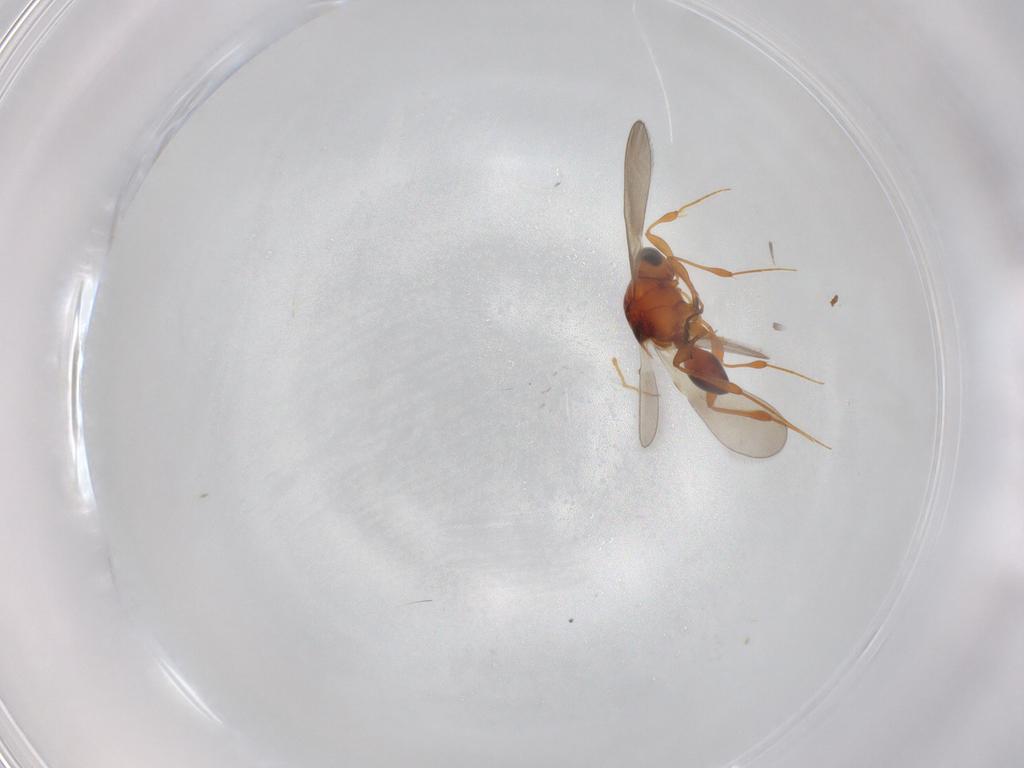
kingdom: Animalia
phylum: Arthropoda
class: Insecta
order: Hymenoptera
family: Platygastridae
